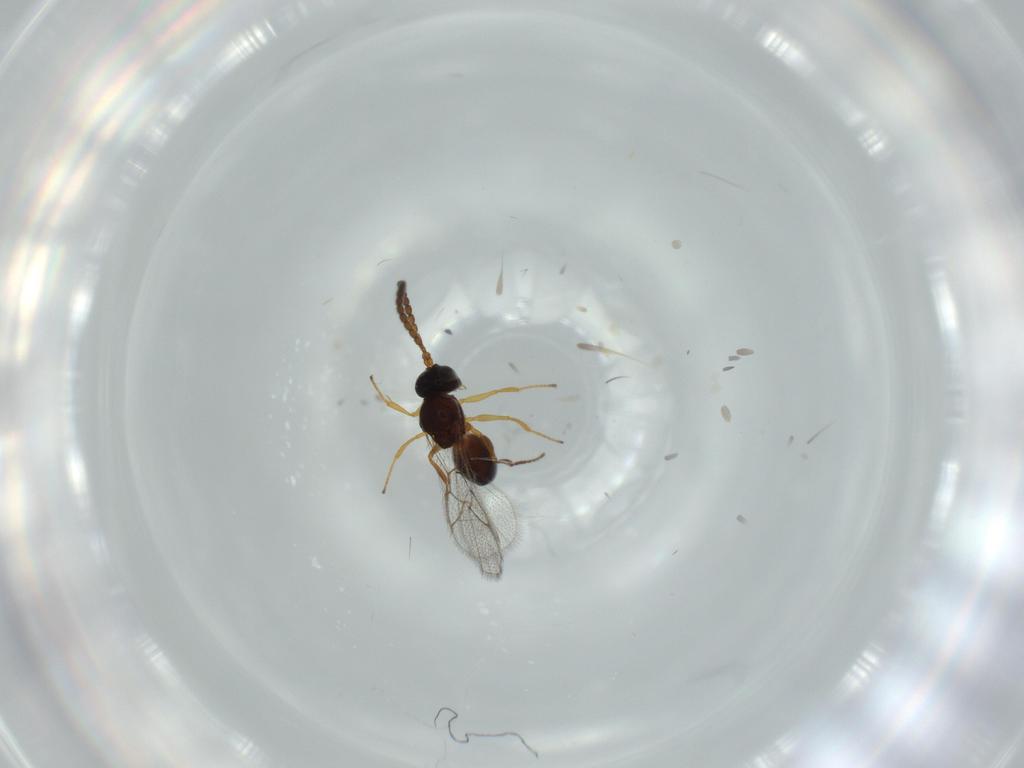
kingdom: Animalia
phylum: Arthropoda
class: Insecta
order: Hymenoptera
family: Figitidae
